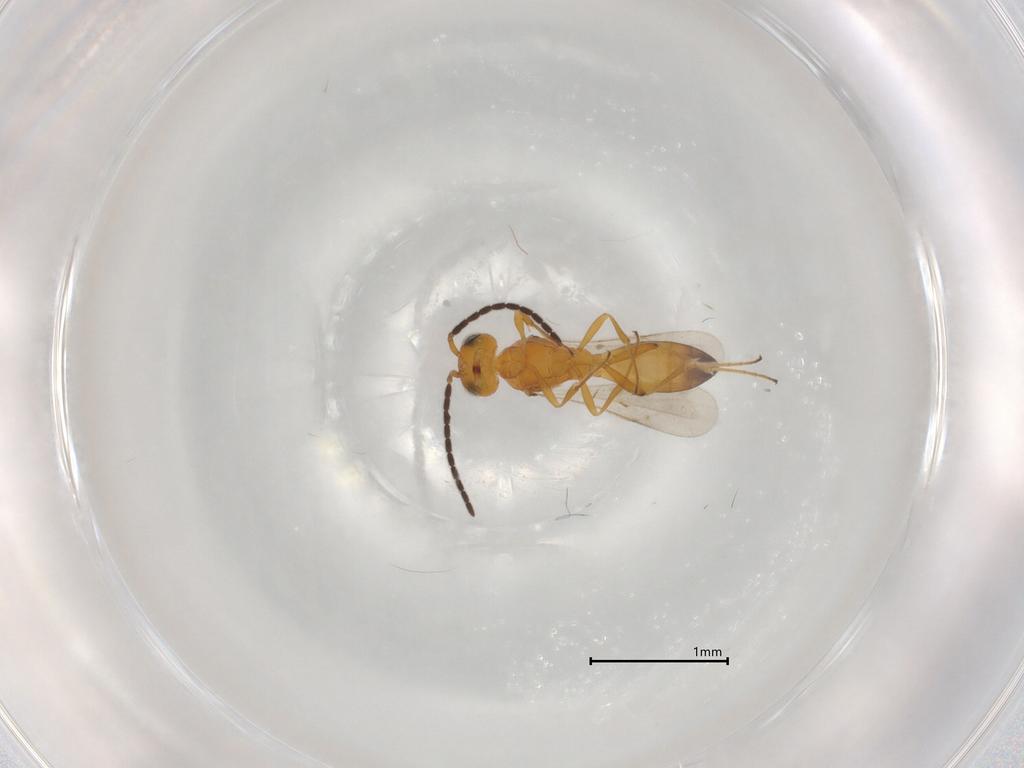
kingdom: Animalia
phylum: Arthropoda
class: Insecta
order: Hymenoptera
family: Scelionidae
